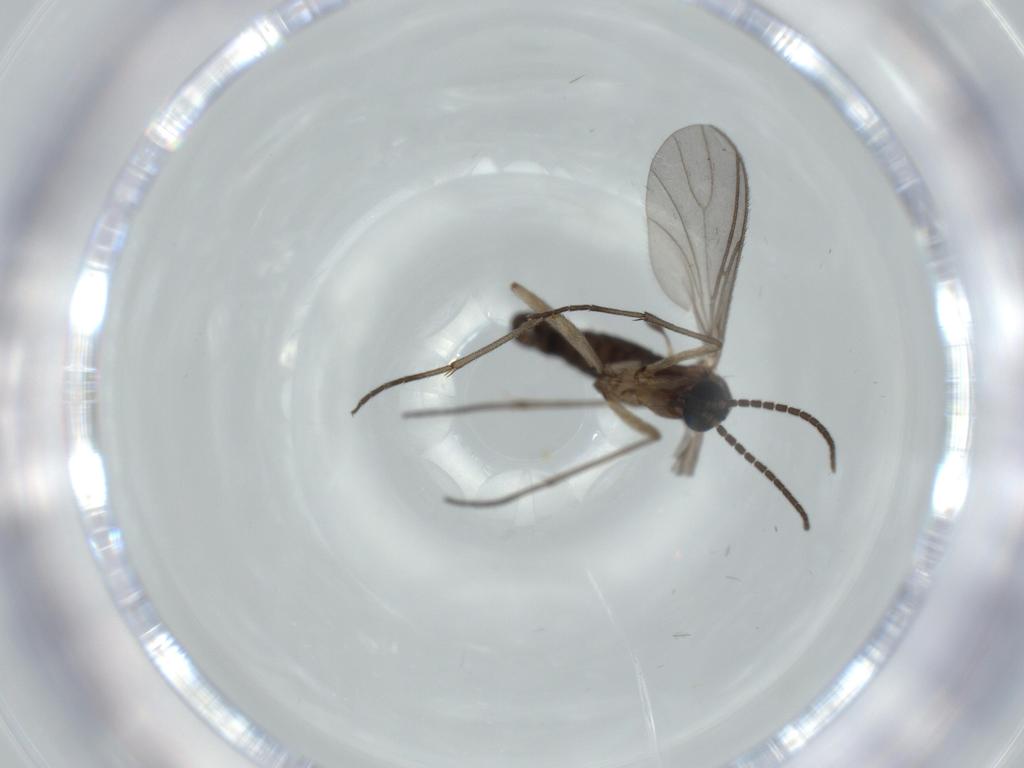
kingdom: Animalia
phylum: Arthropoda
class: Insecta
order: Diptera
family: Sciaridae
